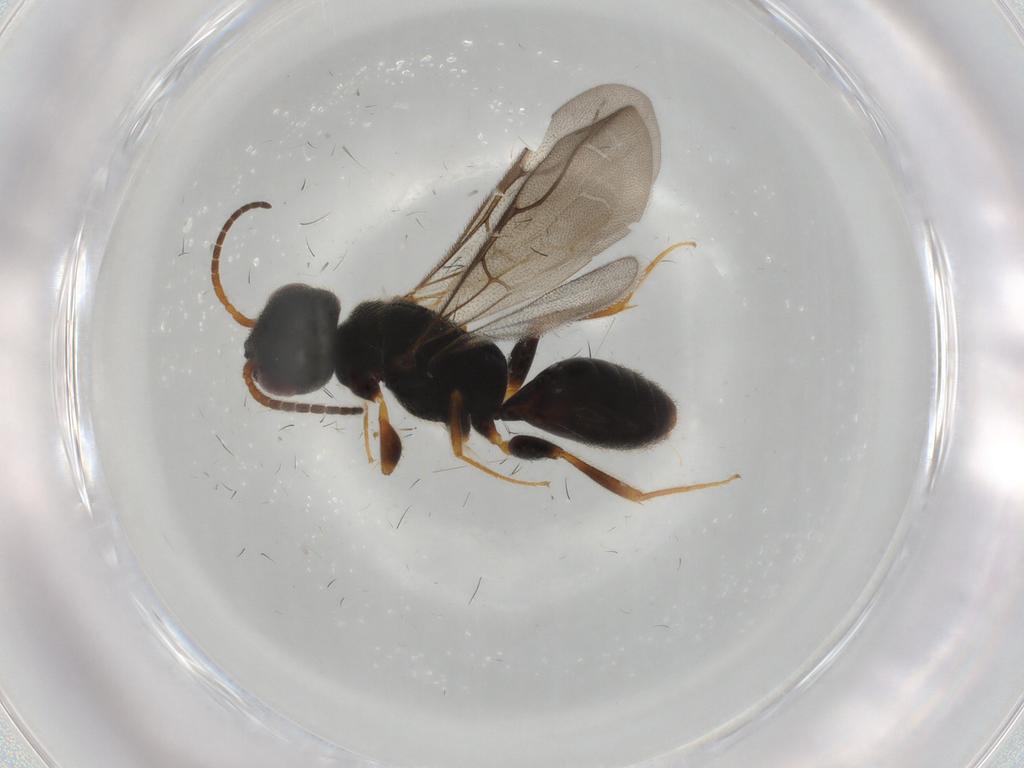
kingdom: Animalia
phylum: Arthropoda
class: Insecta
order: Hymenoptera
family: Bethylidae
